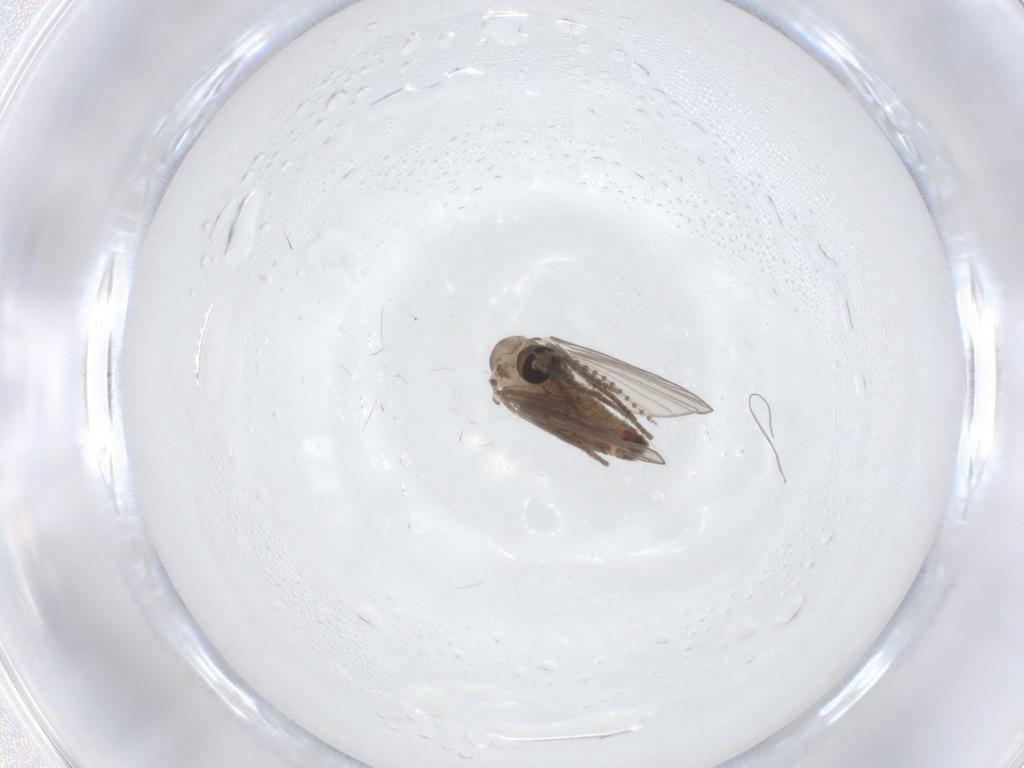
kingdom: Animalia
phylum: Arthropoda
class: Insecta
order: Diptera
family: Psychodidae
